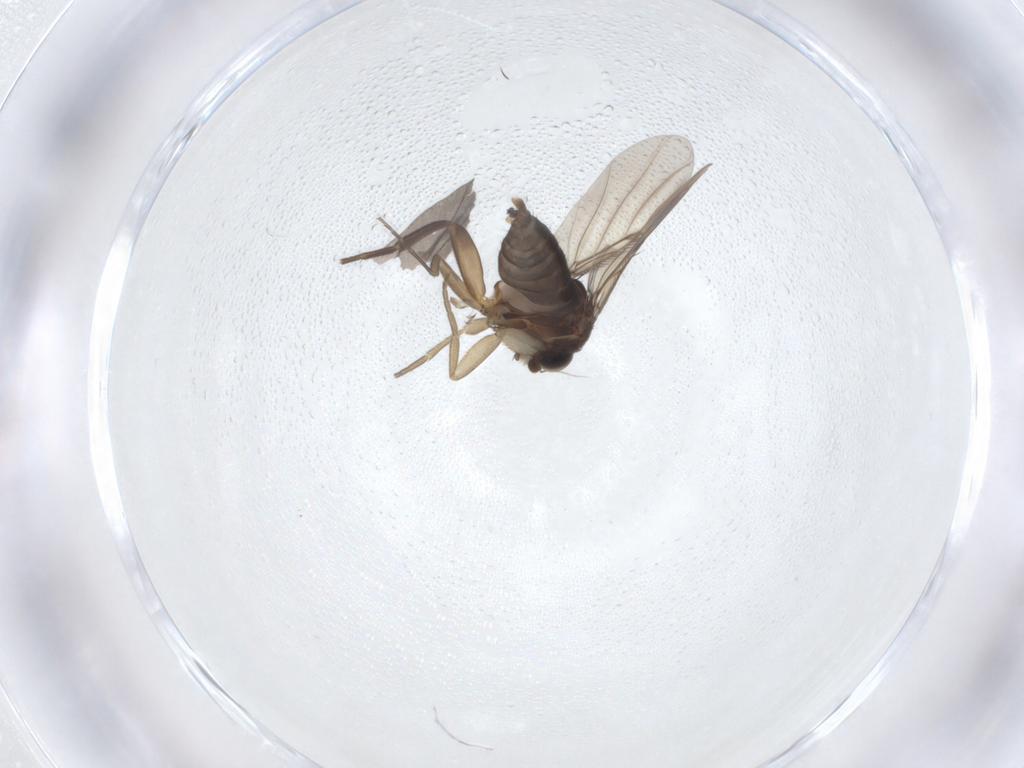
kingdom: Animalia
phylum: Arthropoda
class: Insecta
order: Diptera
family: Phoridae
